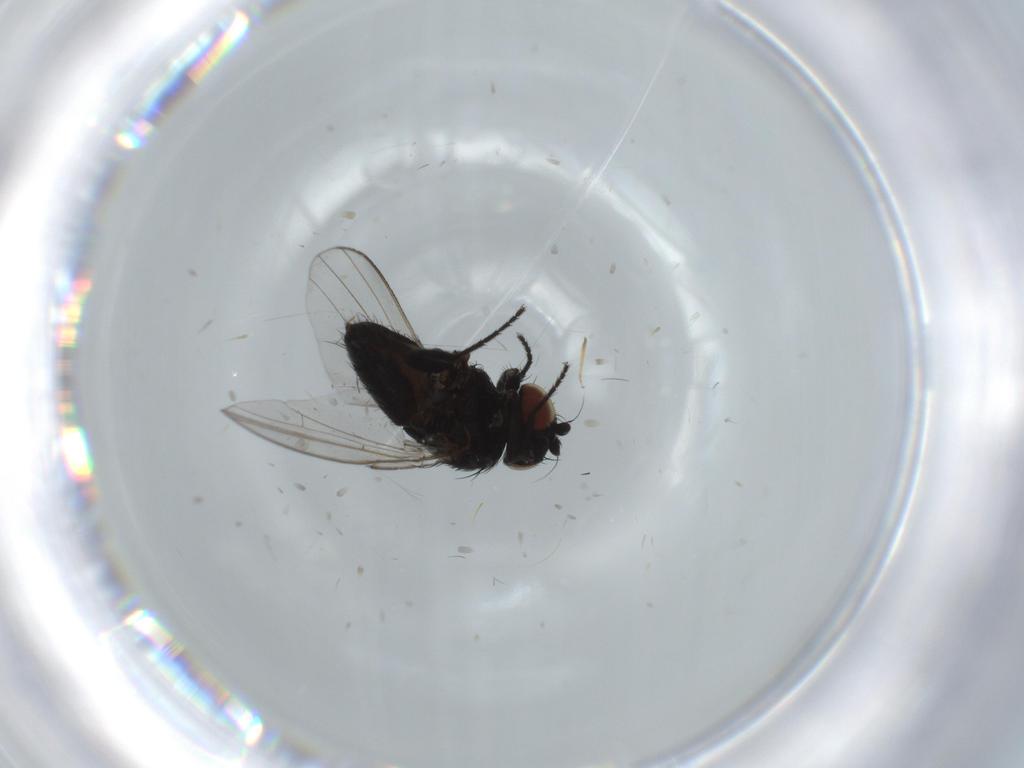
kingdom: Animalia
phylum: Arthropoda
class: Insecta
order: Diptera
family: Milichiidae
